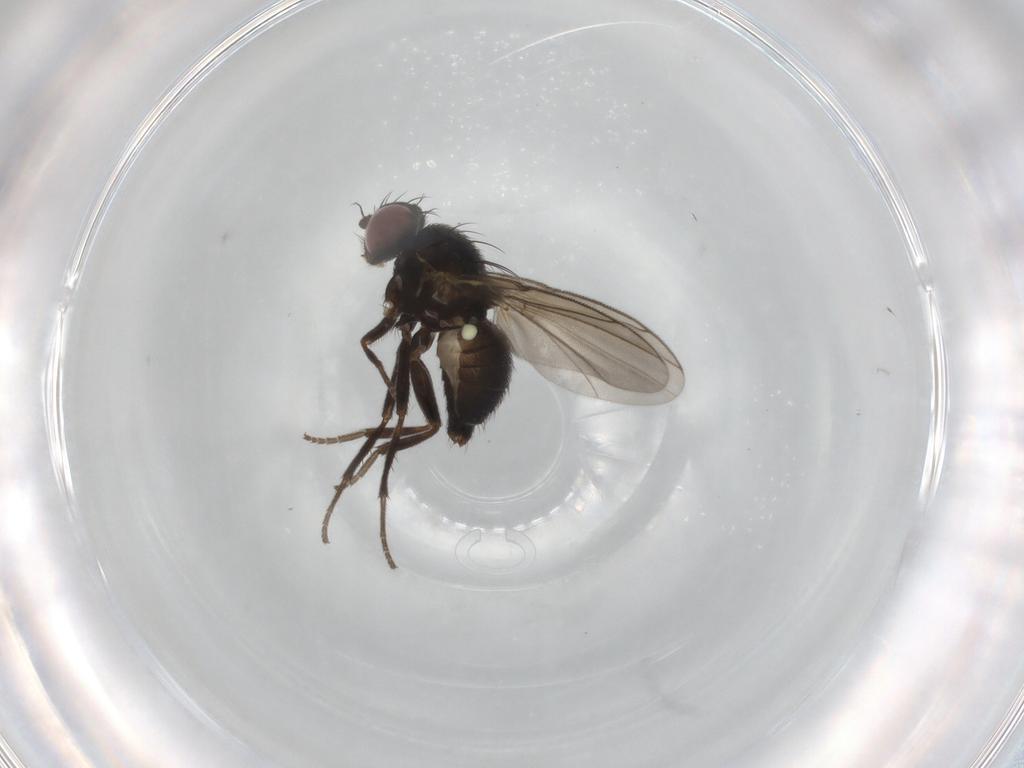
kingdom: Animalia
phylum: Arthropoda
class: Insecta
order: Diptera
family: Agromyzidae
